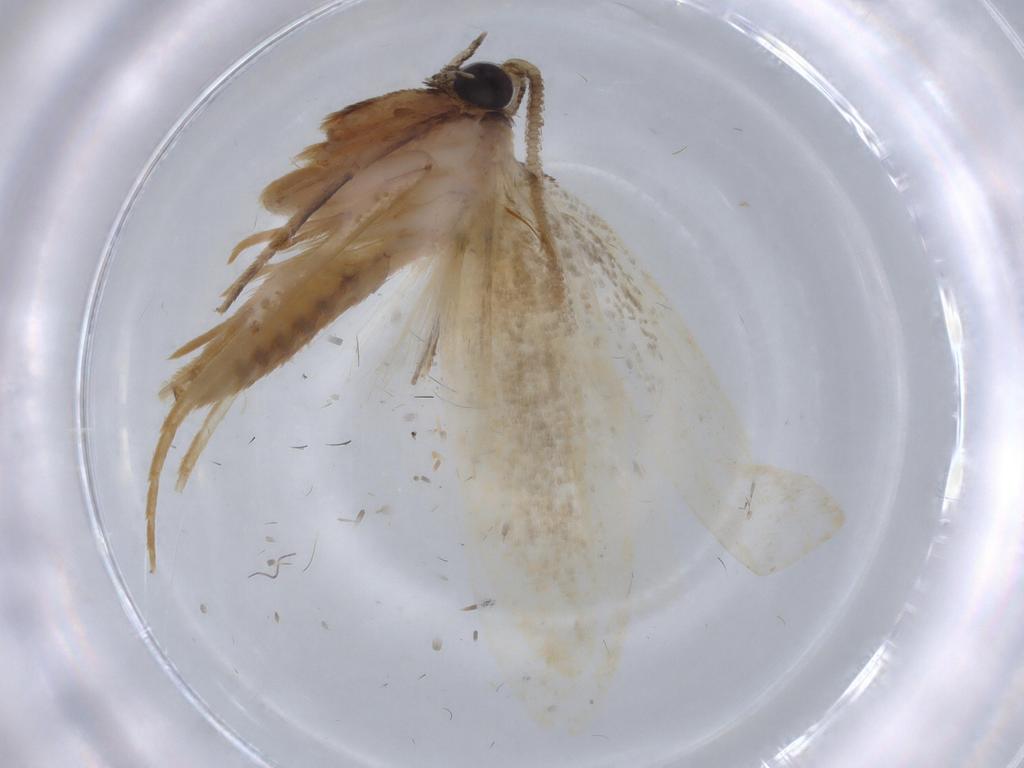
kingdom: Animalia
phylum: Arthropoda
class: Insecta
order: Lepidoptera
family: Tineidae
